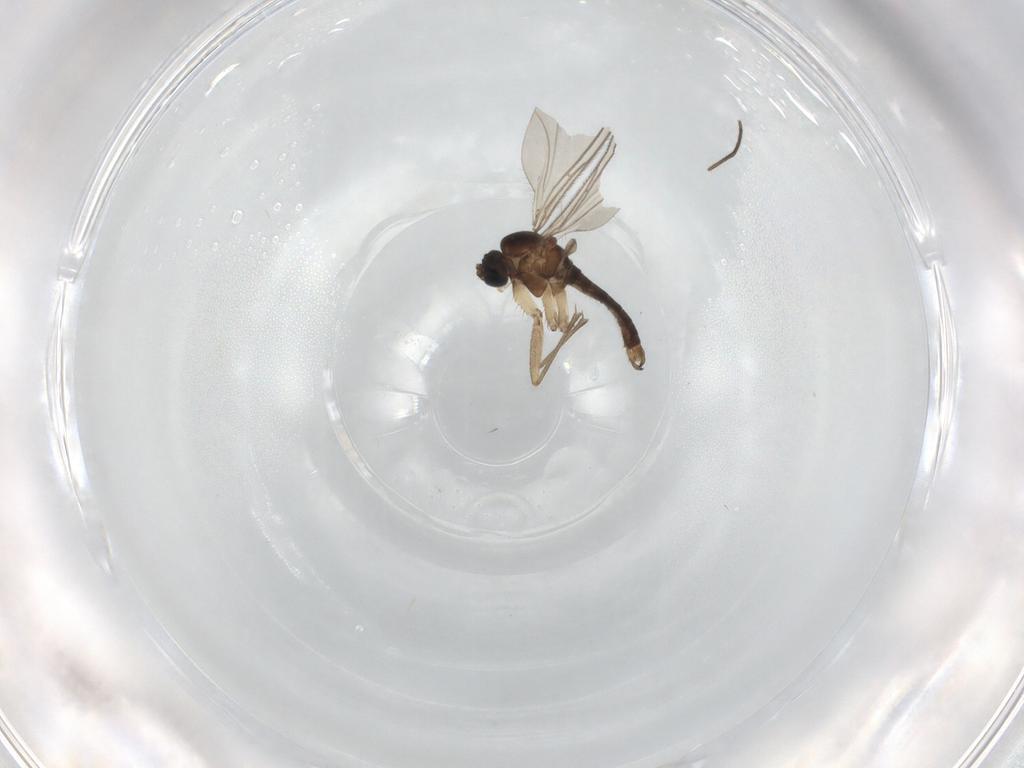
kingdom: Animalia
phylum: Arthropoda
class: Insecta
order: Diptera
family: Sciaridae
